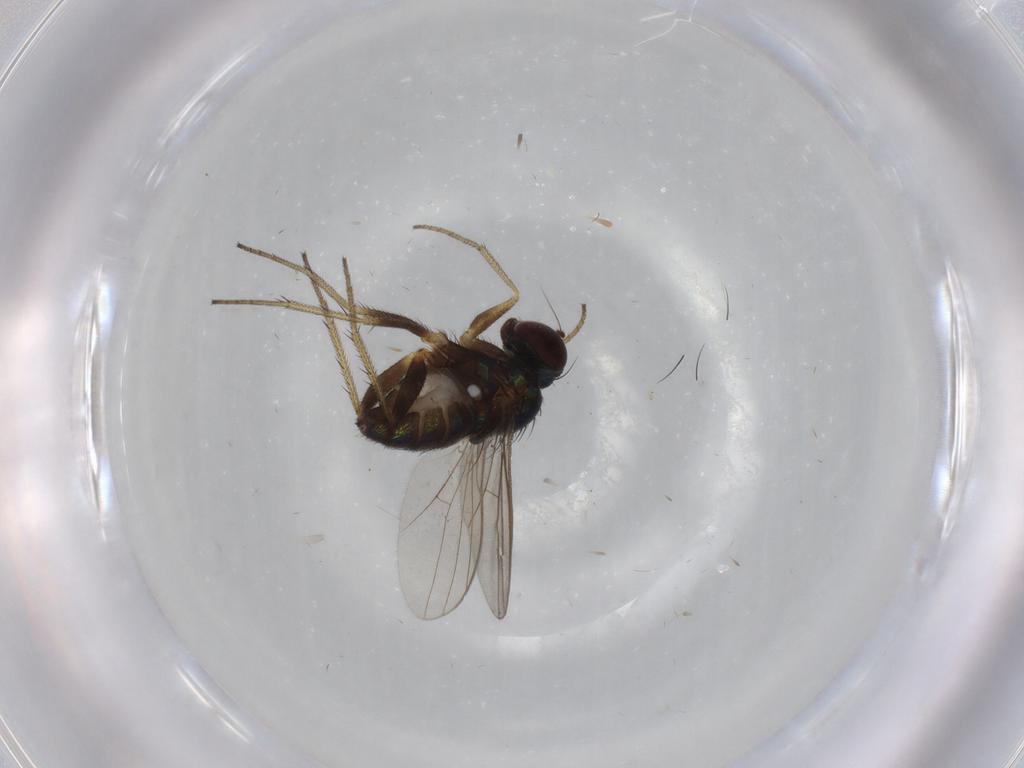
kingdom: Animalia
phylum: Arthropoda
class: Insecta
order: Diptera
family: Dolichopodidae
